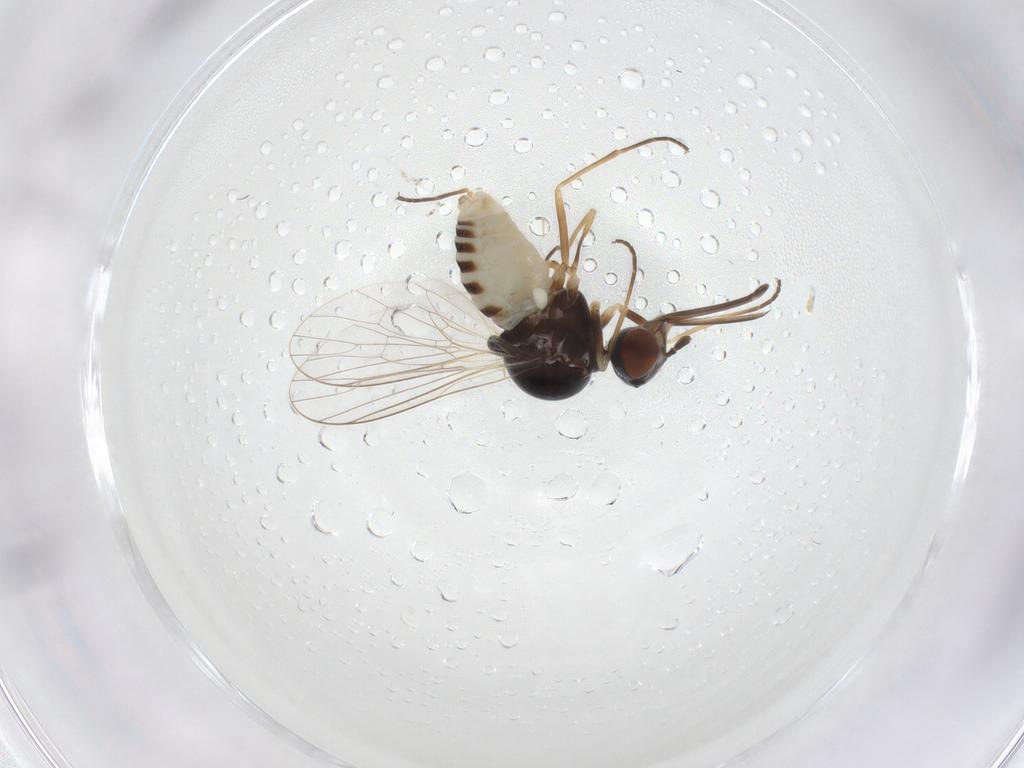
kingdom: Animalia
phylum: Arthropoda
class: Insecta
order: Diptera
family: Bombyliidae
